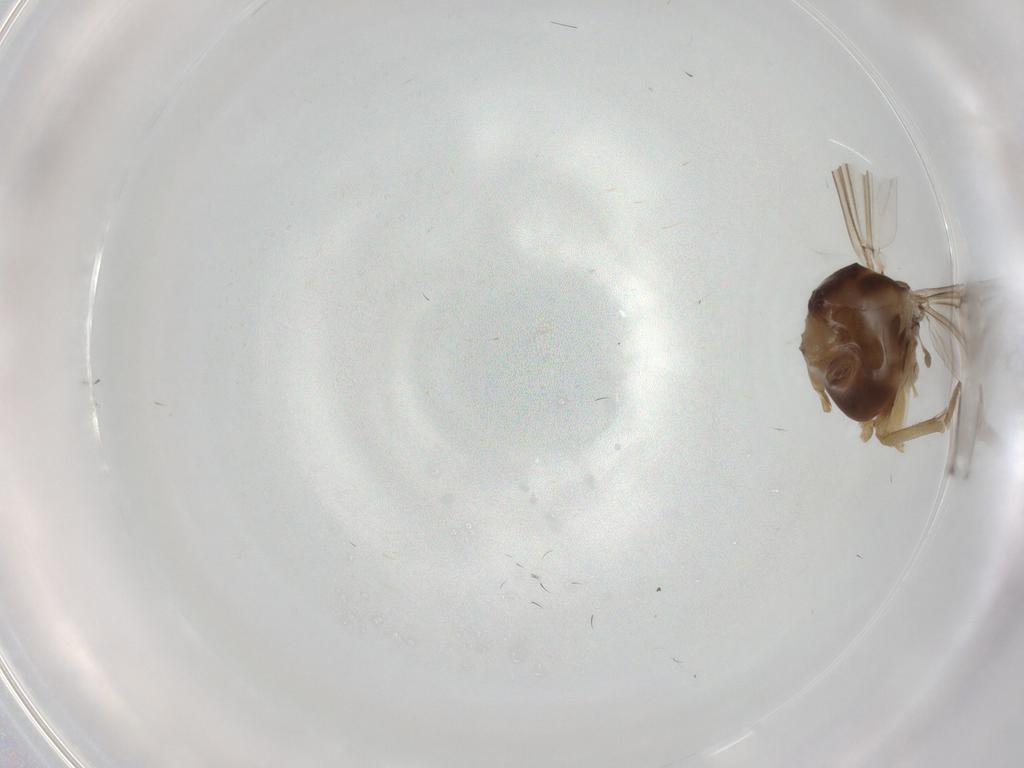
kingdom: Animalia
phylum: Arthropoda
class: Insecta
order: Diptera
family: Chironomidae
